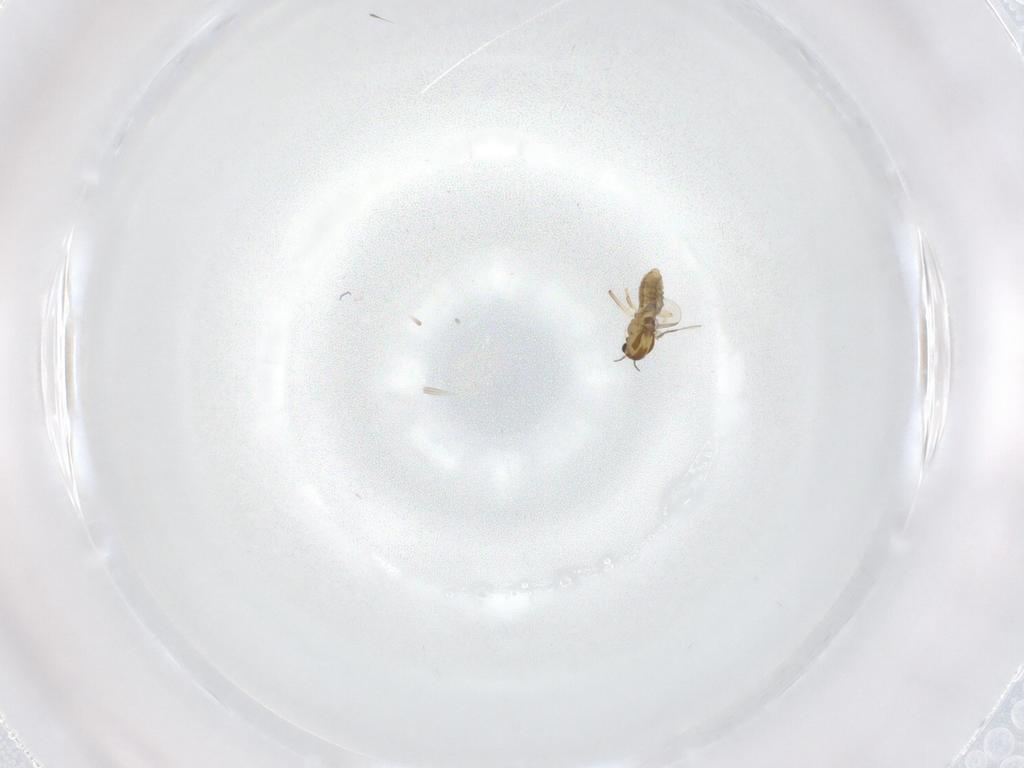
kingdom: Animalia
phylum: Arthropoda
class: Insecta
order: Diptera
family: Chironomidae
